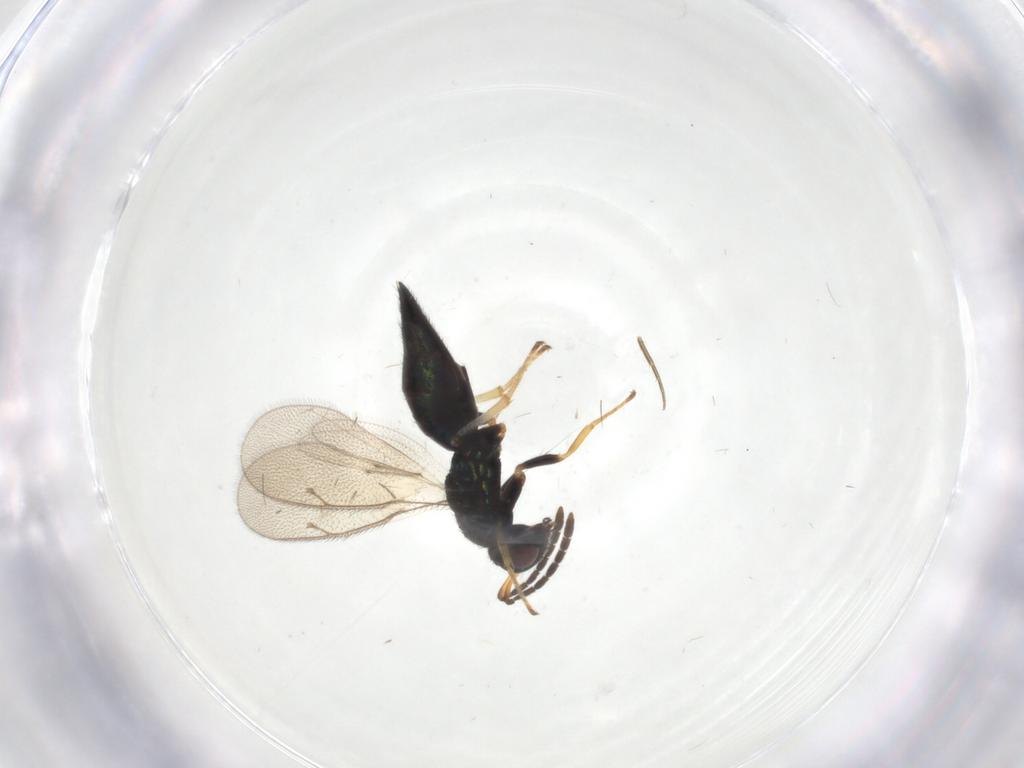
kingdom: Animalia
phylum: Arthropoda
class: Insecta
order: Hymenoptera
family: Pteromalidae
